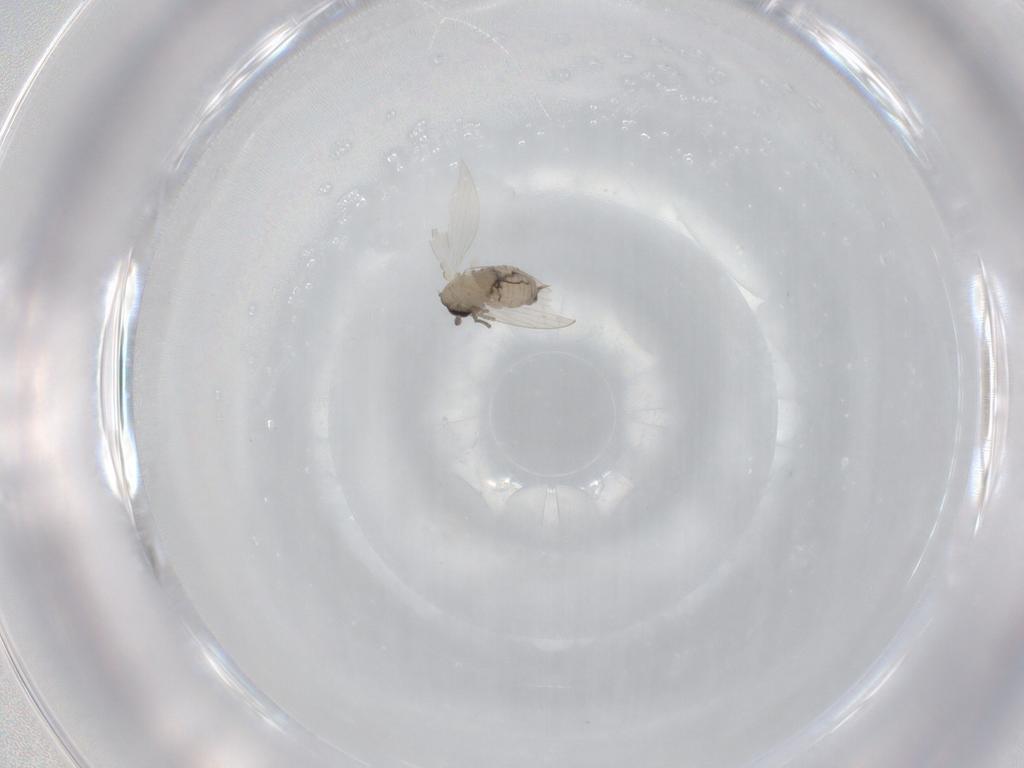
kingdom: Animalia
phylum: Arthropoda
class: Insecta
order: Diptera
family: Psychodidae
